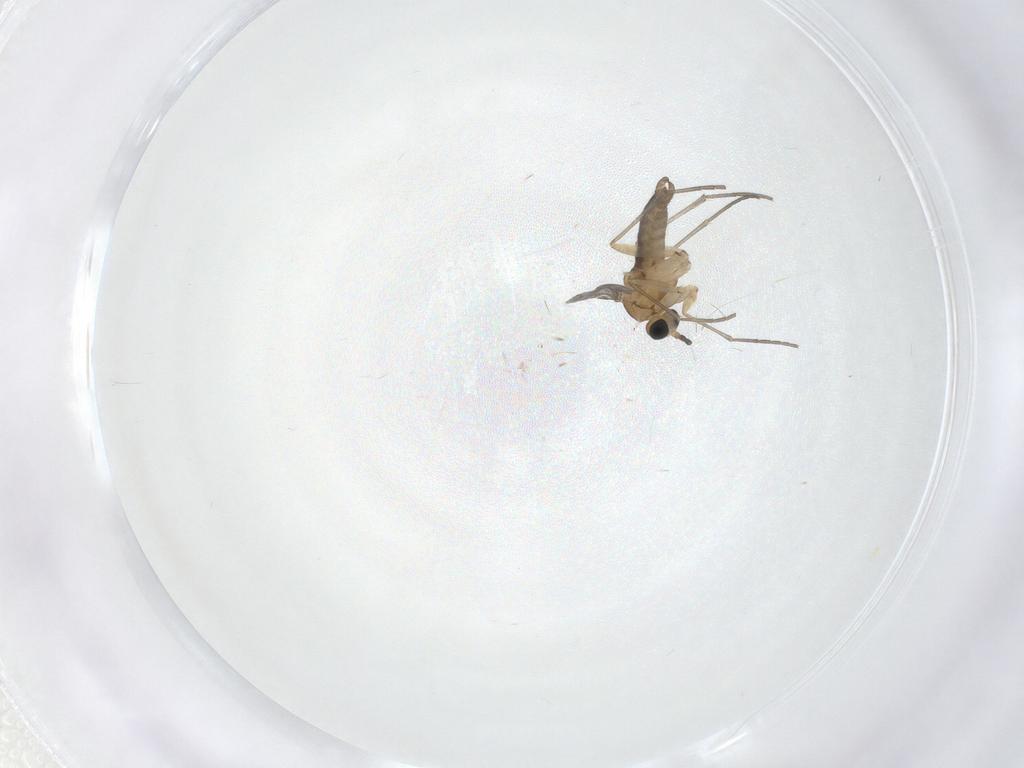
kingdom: Animalia
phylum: Arthropoda
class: Insecta
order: Diptera
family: Sciaridae
